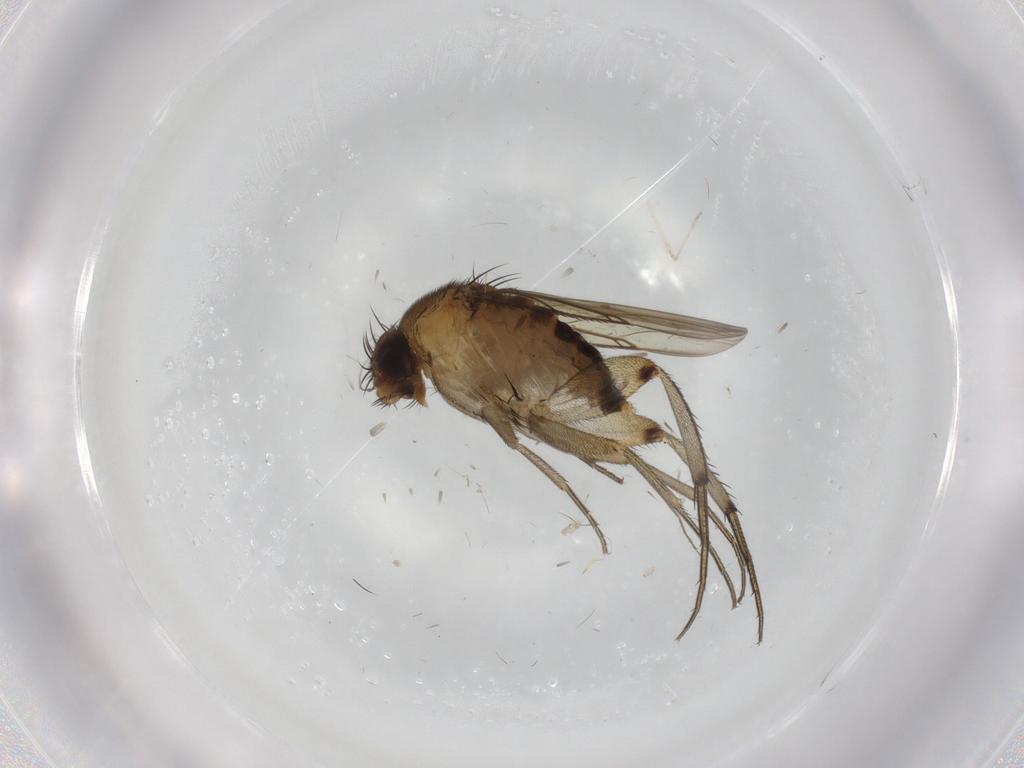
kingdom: Animalia
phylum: Arthropoda
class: Insecta
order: Diptera
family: Phoridae
